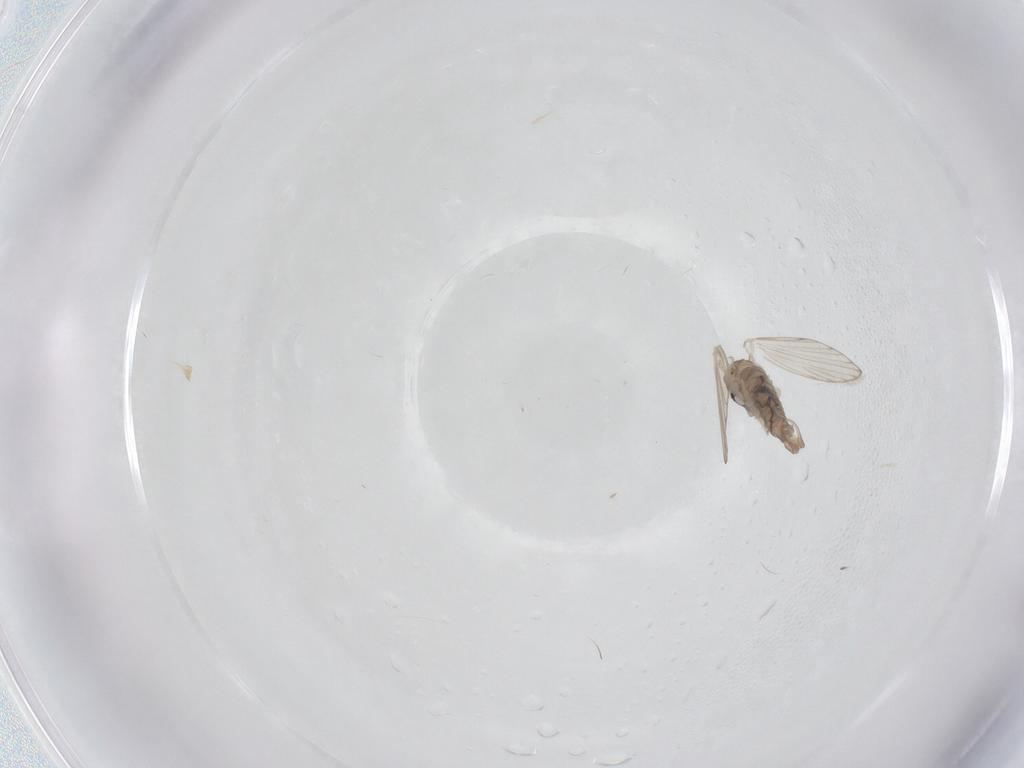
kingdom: Animalia
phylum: Arthropoda
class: Insecta
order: Diptera
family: Psychodidae
